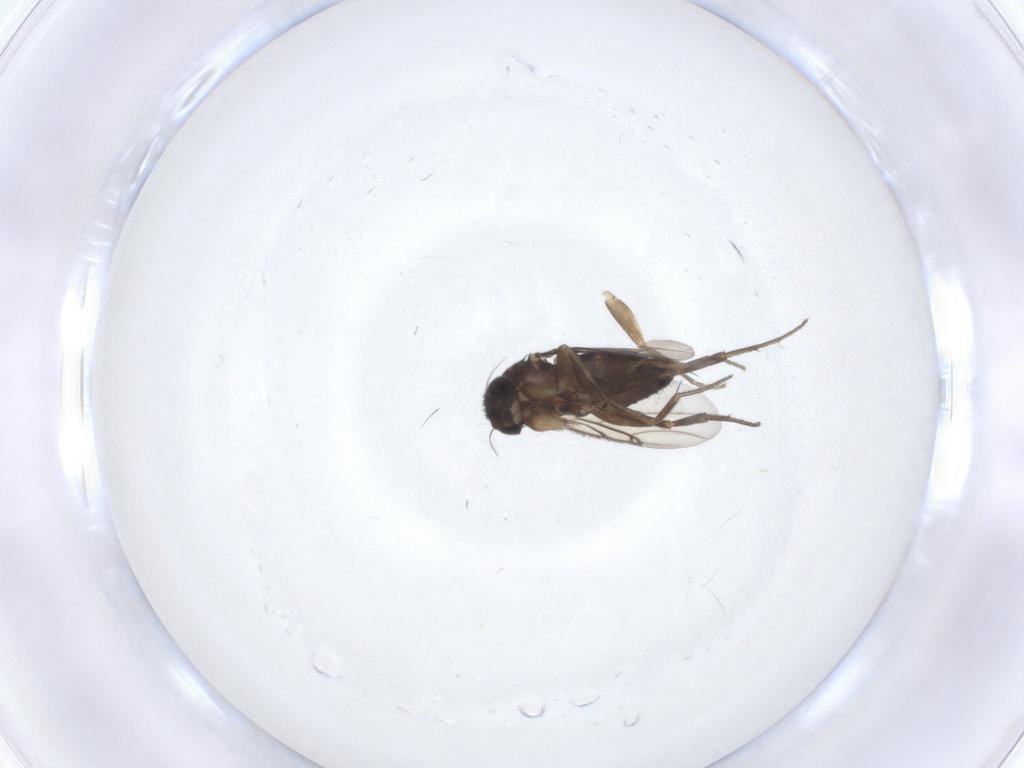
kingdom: Animalia
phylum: Arthropoda
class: Insecta
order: Diptera
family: Phoridae
